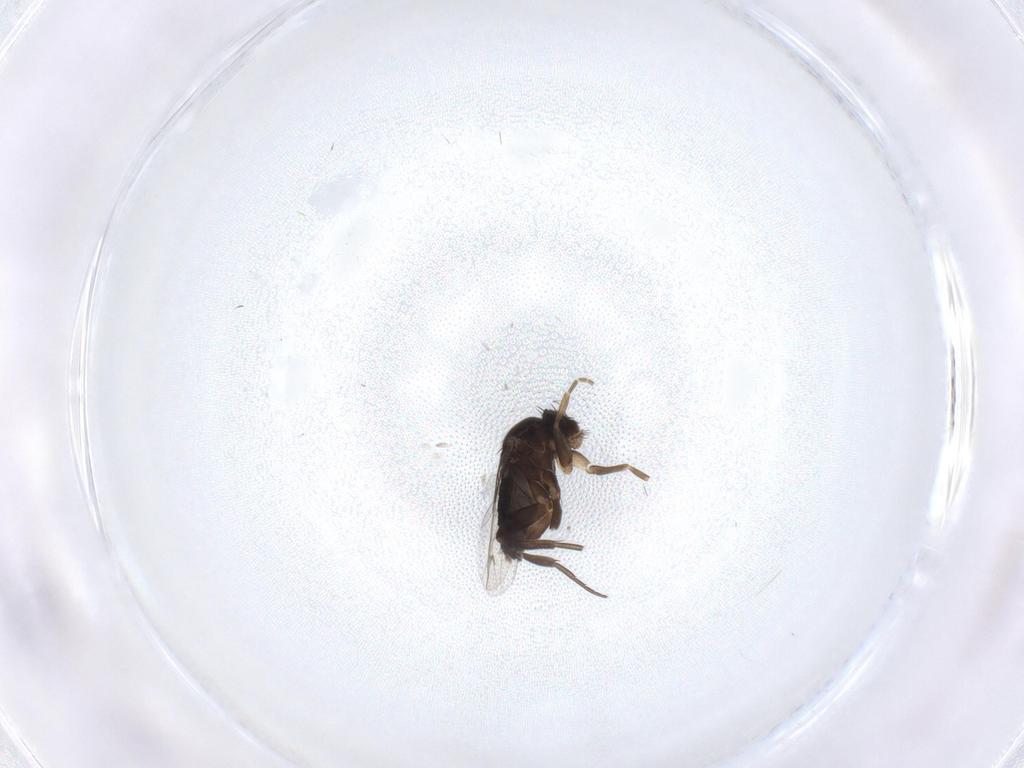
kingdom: Animalia
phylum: Arthropoda
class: Insecta
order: Diptera
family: Phoridae
